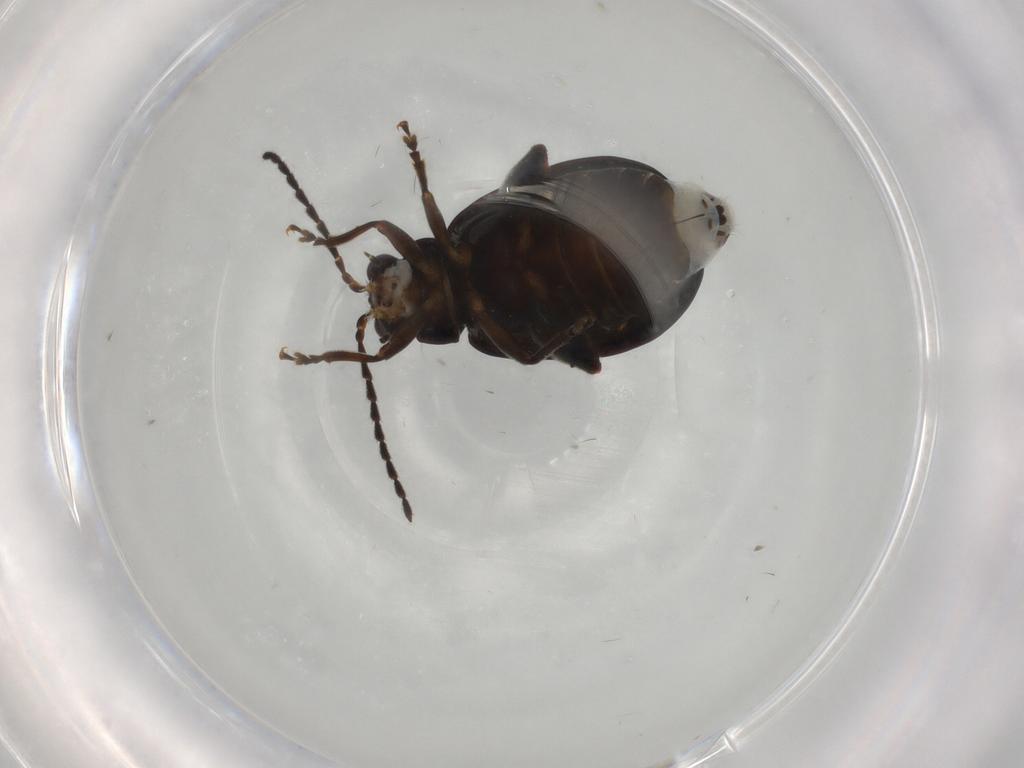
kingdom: Animalia
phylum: Arthropoda
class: Insecta
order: Coleoptera
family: Chrysomelidae
